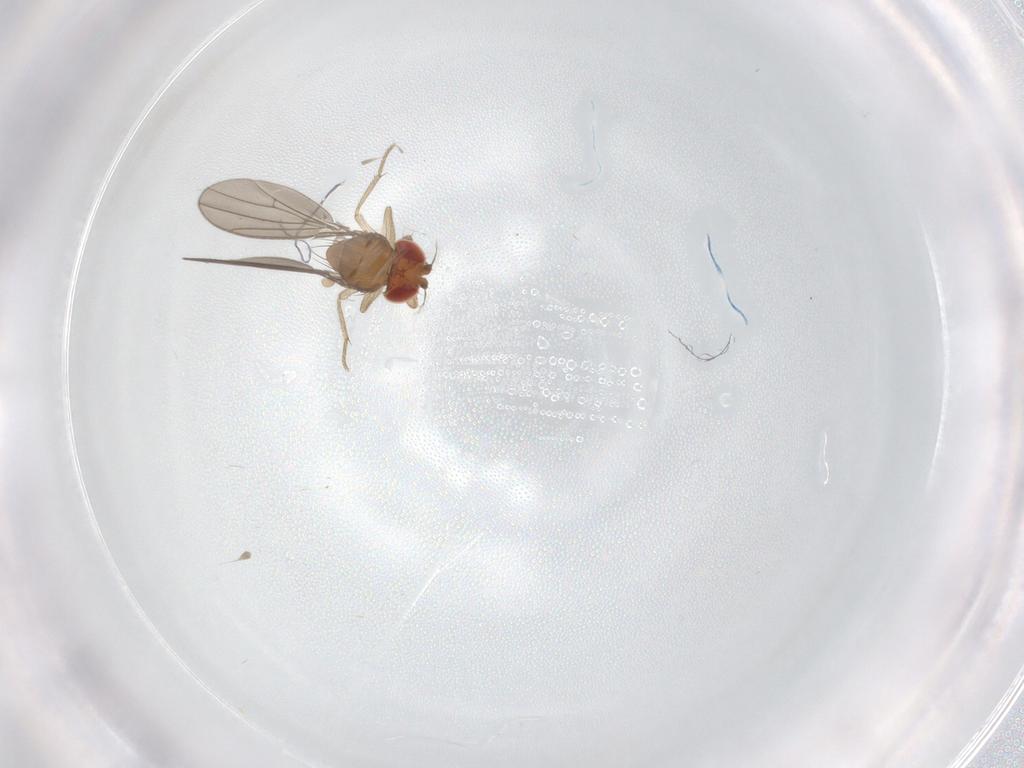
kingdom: Animalia
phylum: Arthropoda
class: Insecta
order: Diptera
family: Drosophilidae
